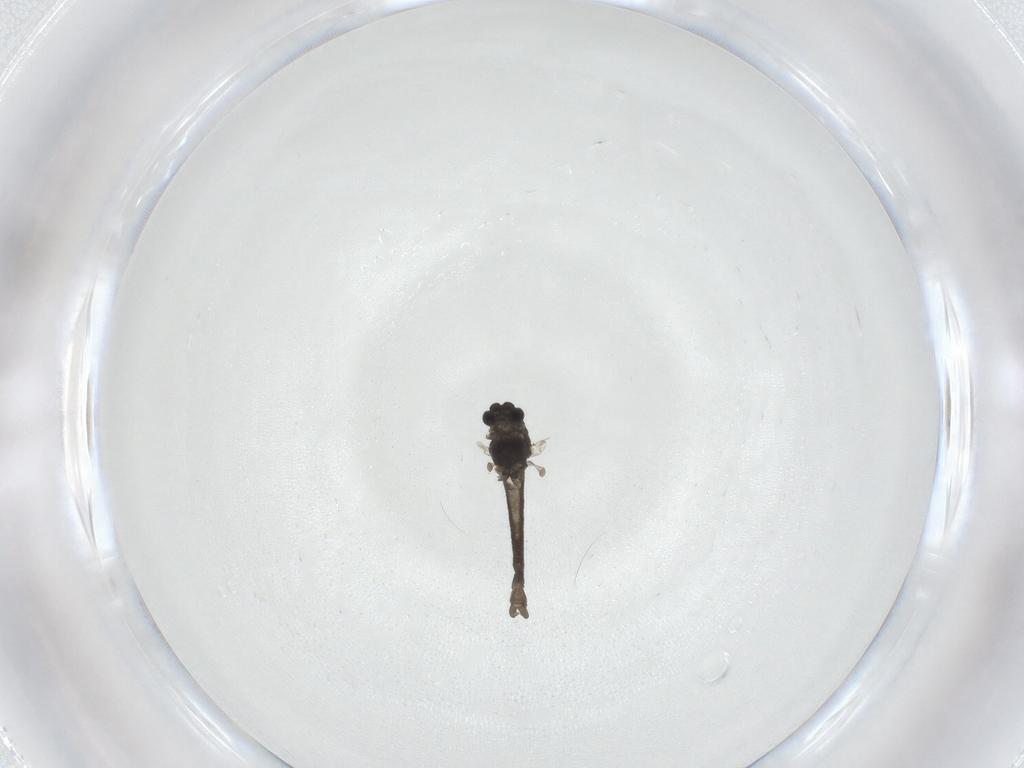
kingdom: Animalia
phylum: Arthropoda
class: Insecta
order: Diptera
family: Chironomidae
